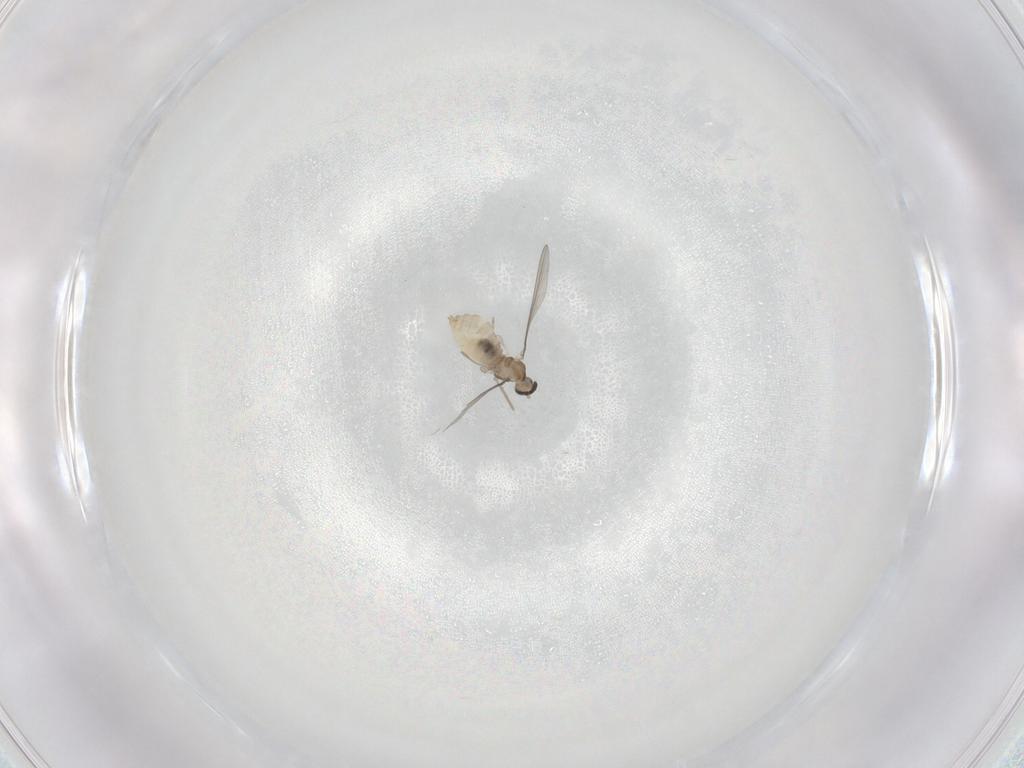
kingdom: Animalia
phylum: Arthropoda
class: Insecta
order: Diptera
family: Cecidomyiidae
